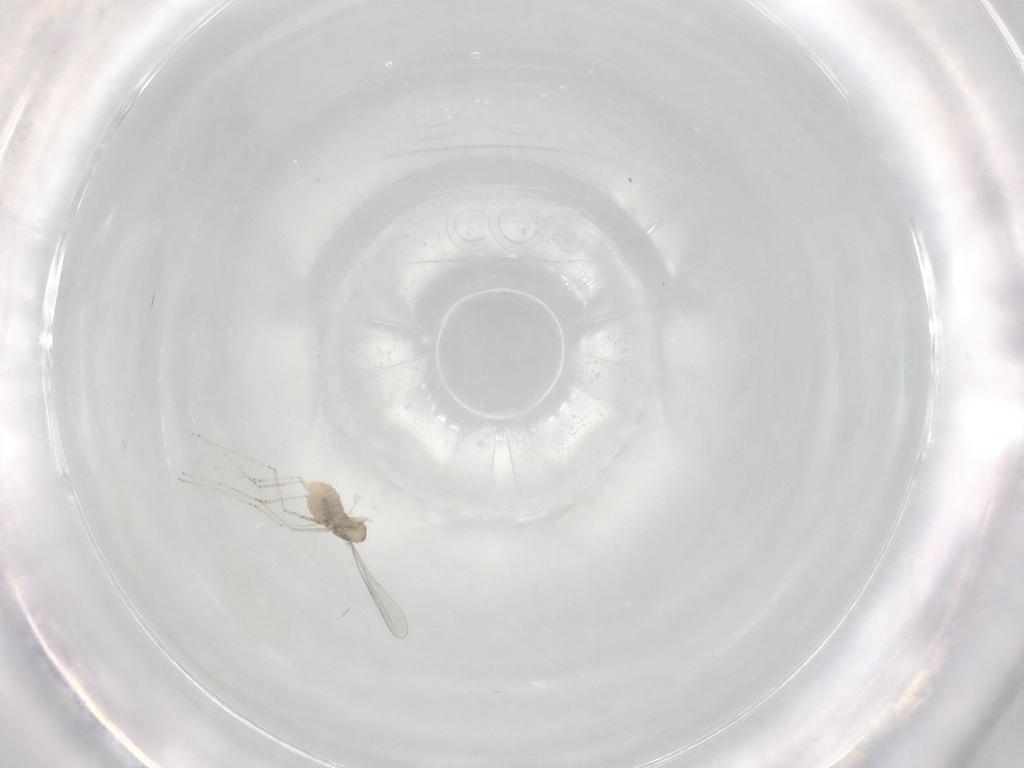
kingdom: Animalia
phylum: Arthropoda
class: Insecta
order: Diptera
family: Cecidomyiidae
